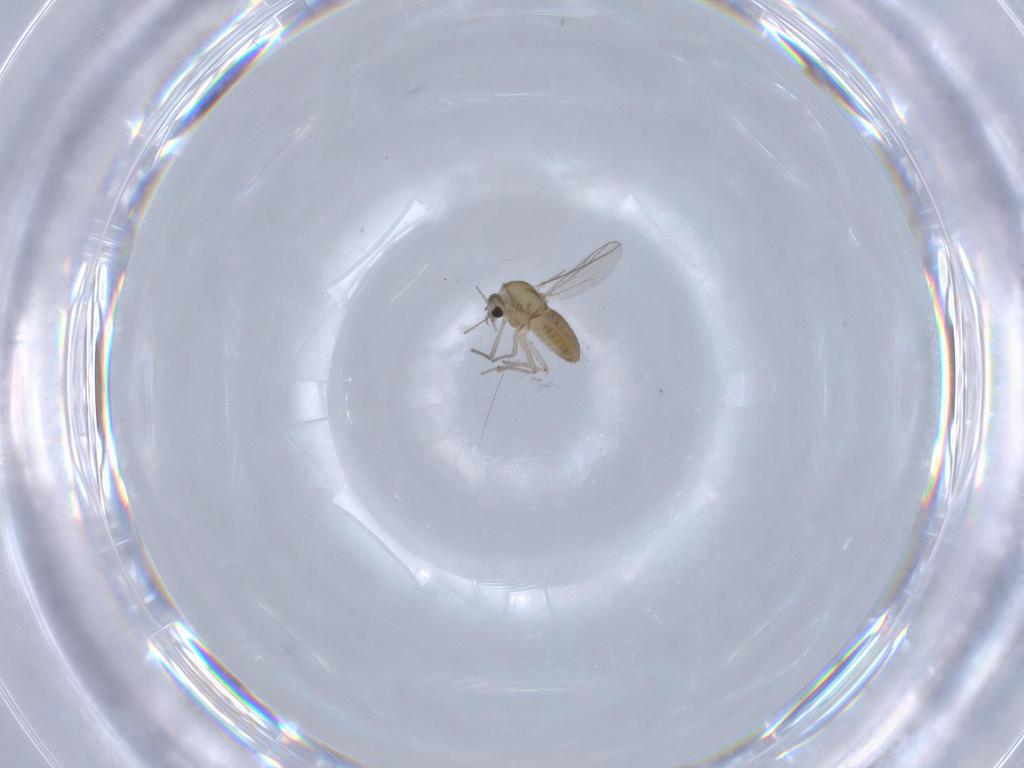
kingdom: Animalia
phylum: Arthropoda
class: Insecta
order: Diptera
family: Chironomidae
